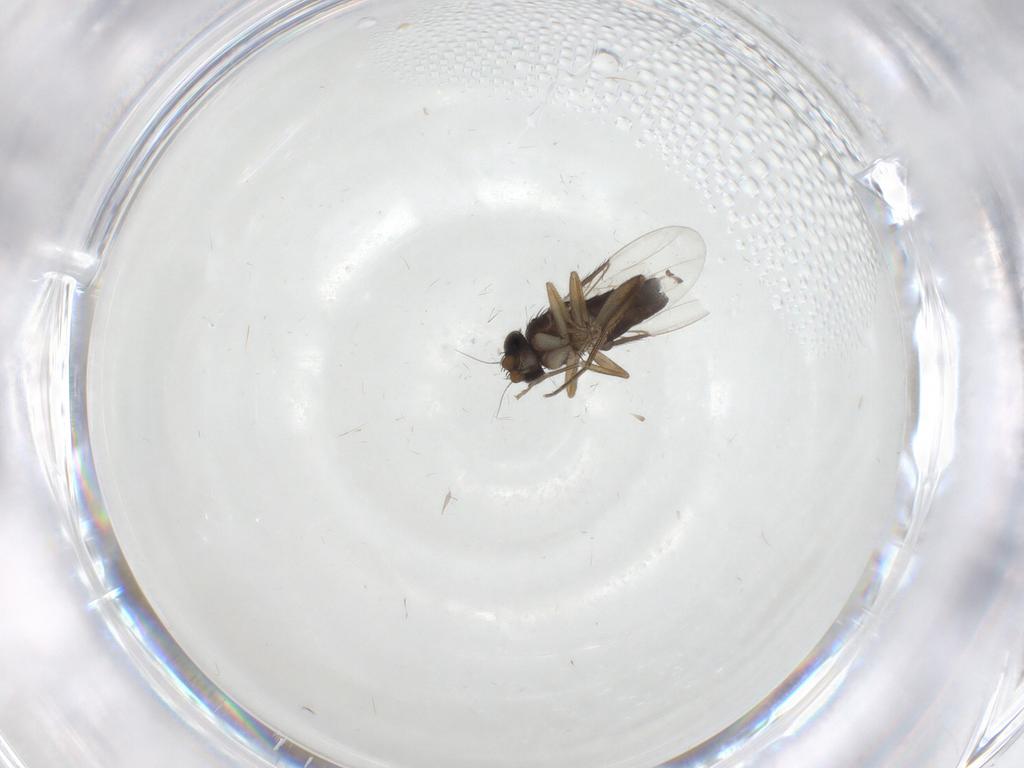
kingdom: Animalia
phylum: Arthropoda
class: Insecta
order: Diptera
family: Phoridae
